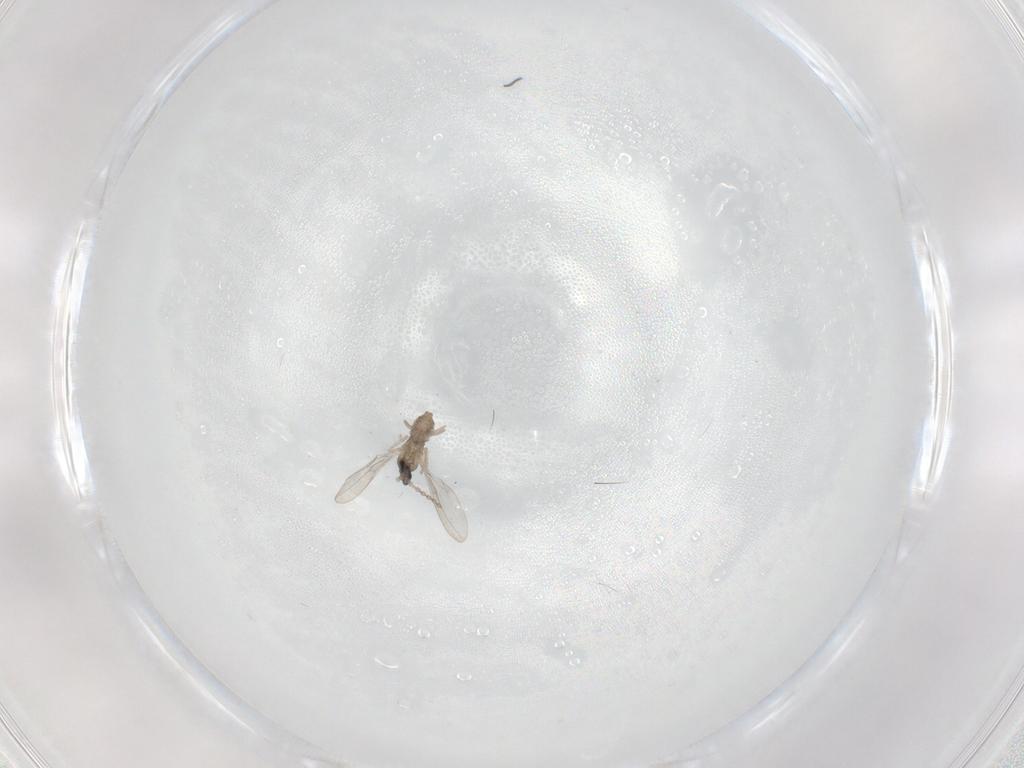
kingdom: Animalia
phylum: Arthropoda
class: Insecta
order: Diptera
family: Cecidomyiidae
